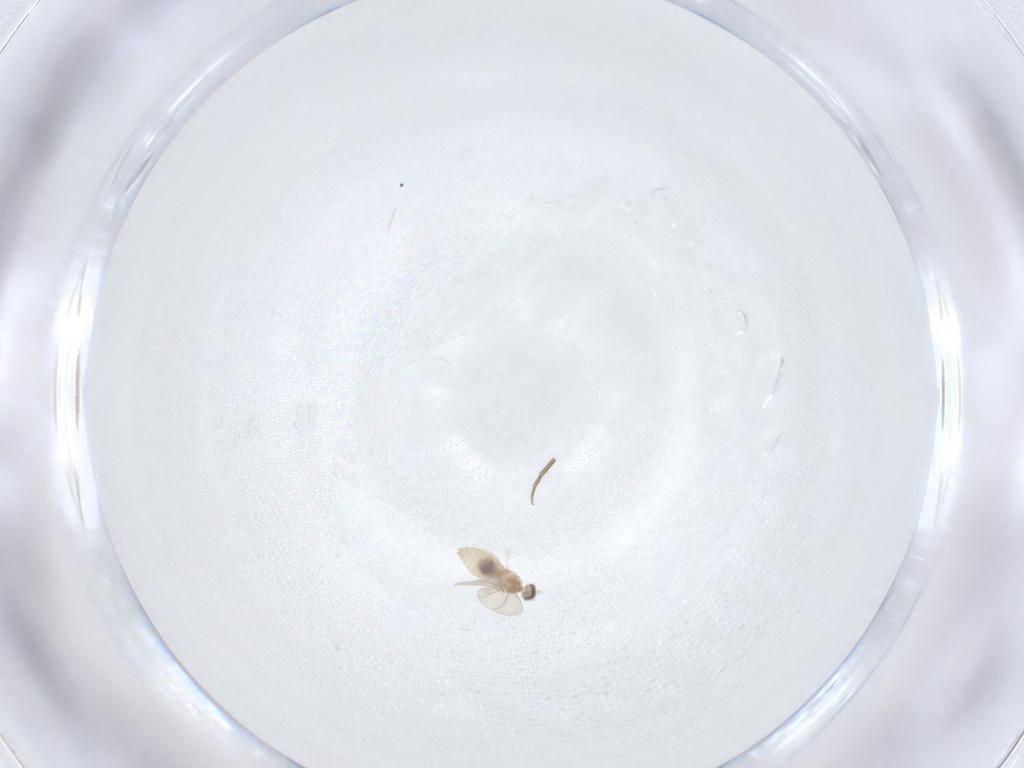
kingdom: Animalia
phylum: Arthropoda
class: Insecta
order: Diptera
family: Cecidomyiidae
